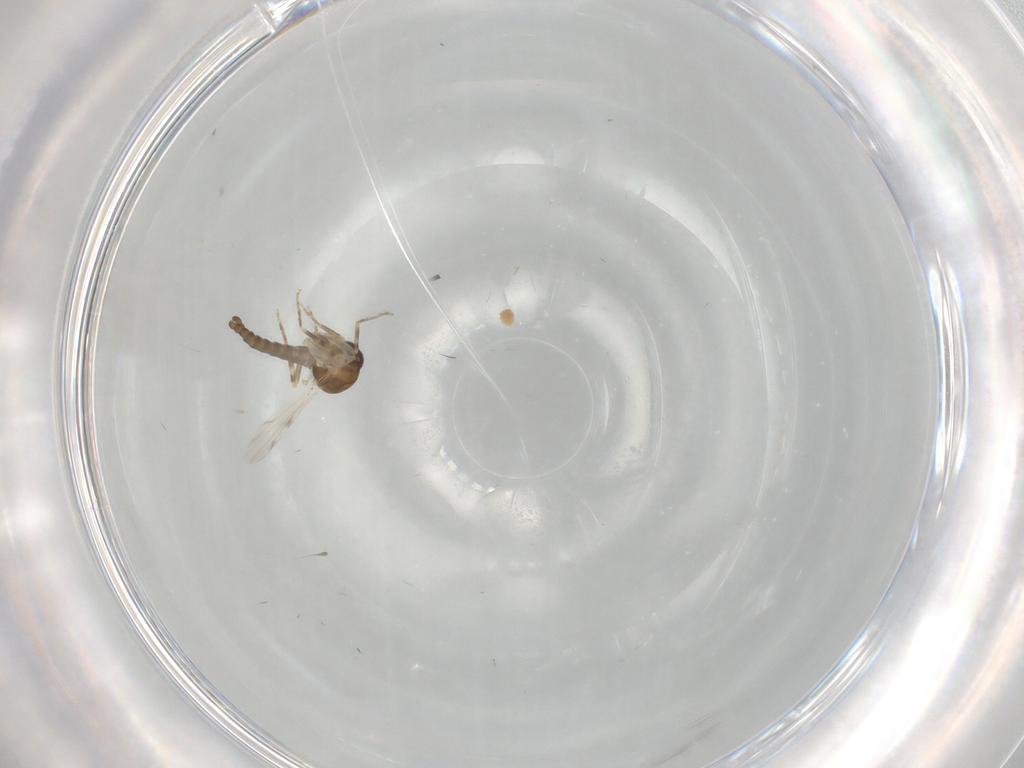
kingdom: Animalia
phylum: Arthropoda
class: Insecta
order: Diptera
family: Ceratopogonidae
